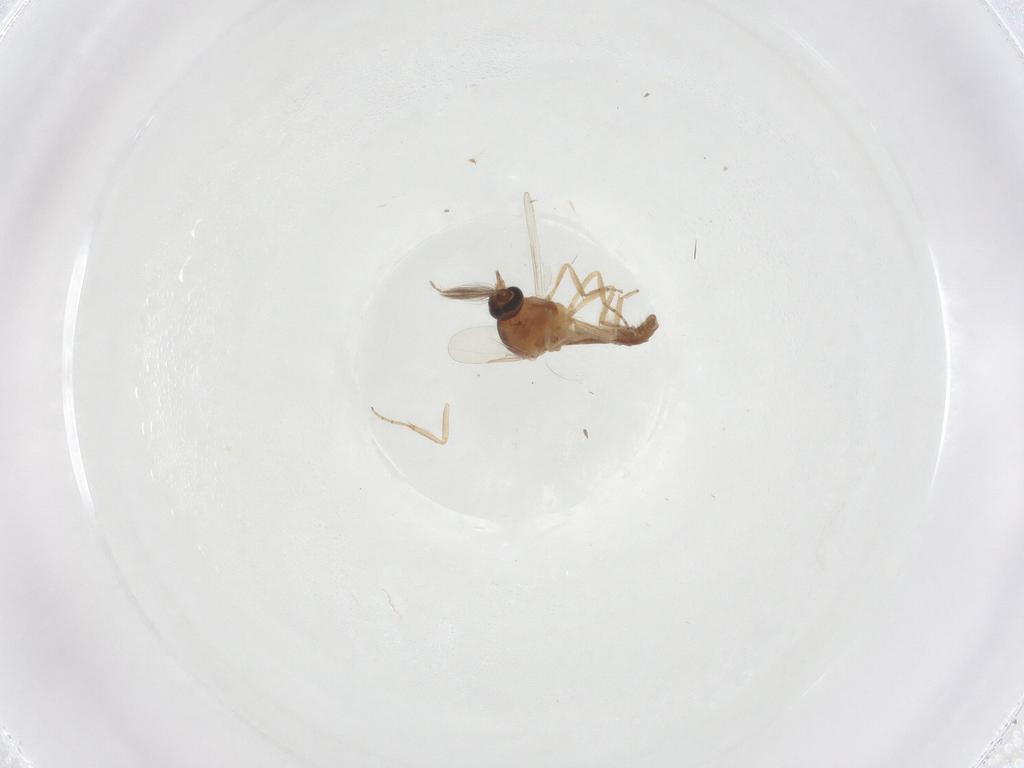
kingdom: Animalia
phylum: Arthropoda
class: Insecta
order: Diptera
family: Ceratopogonidae
